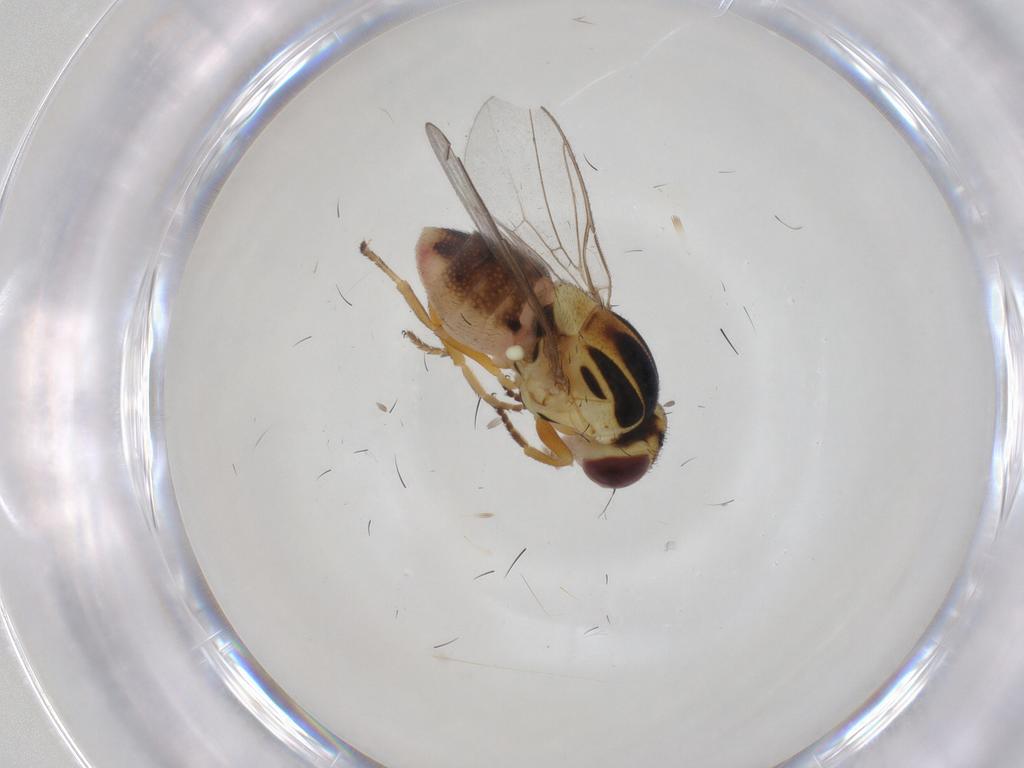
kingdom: Animalia
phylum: Arthropoda
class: Insecta
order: Diptera
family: Chloropidae
